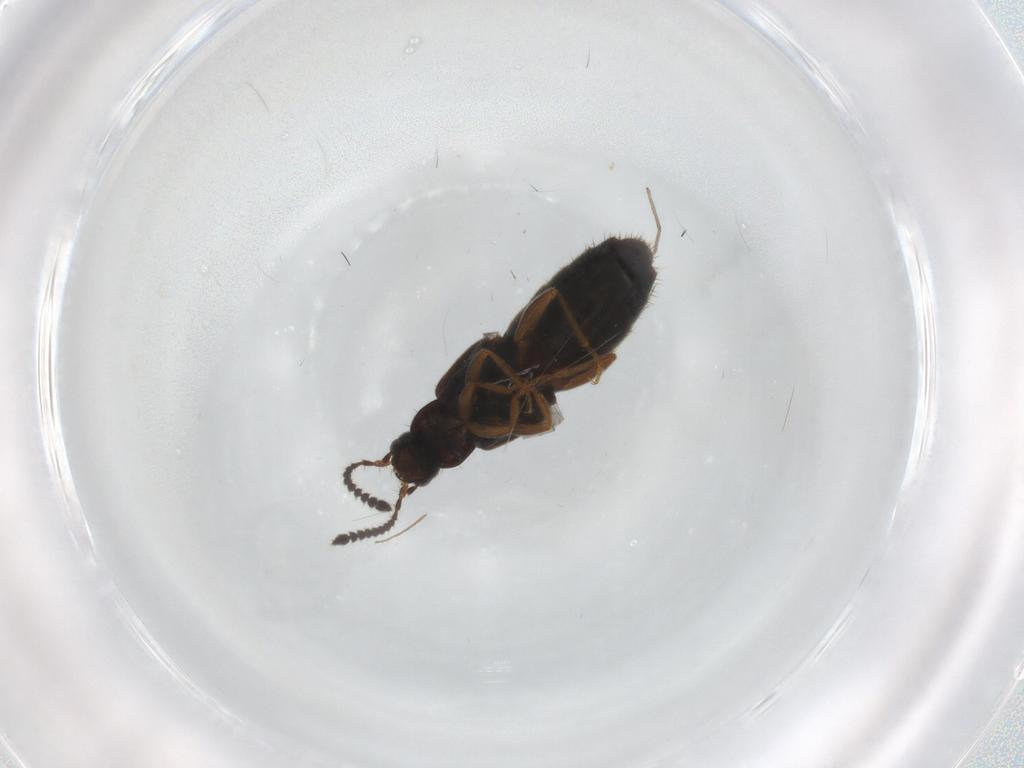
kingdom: Animalia
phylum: Arthropoda
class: Insecta
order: Coleoptera
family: Staphylinidae
